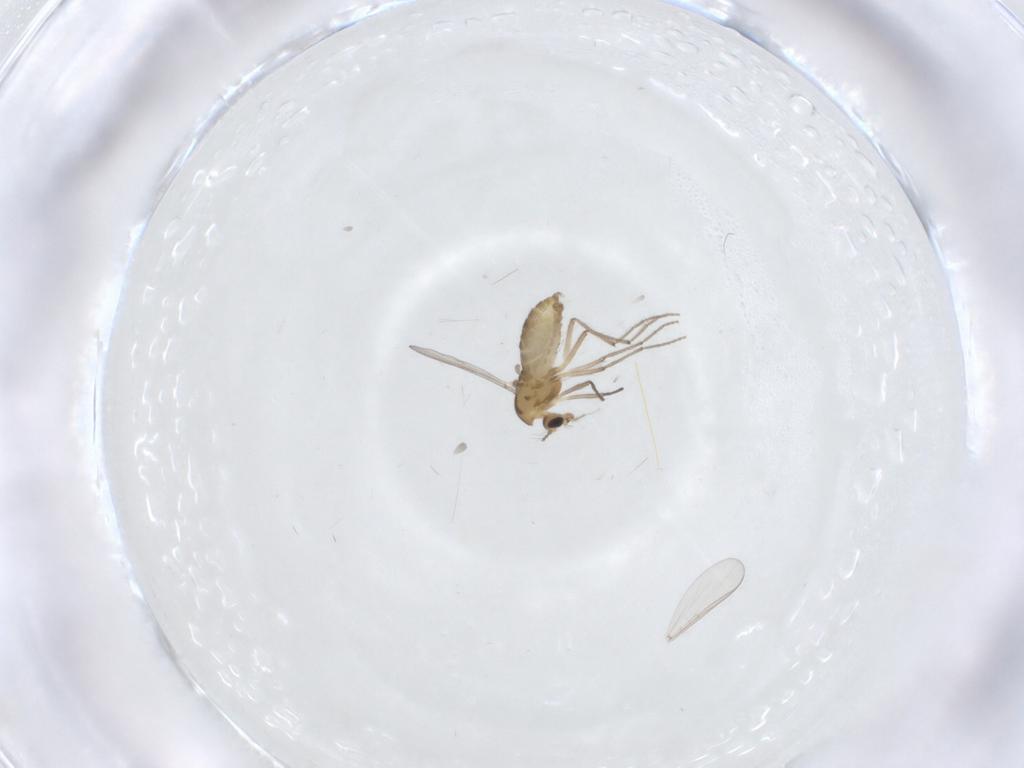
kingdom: Animalia
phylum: Arthropoda
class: Insecta
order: Diptera
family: Chironomidae
